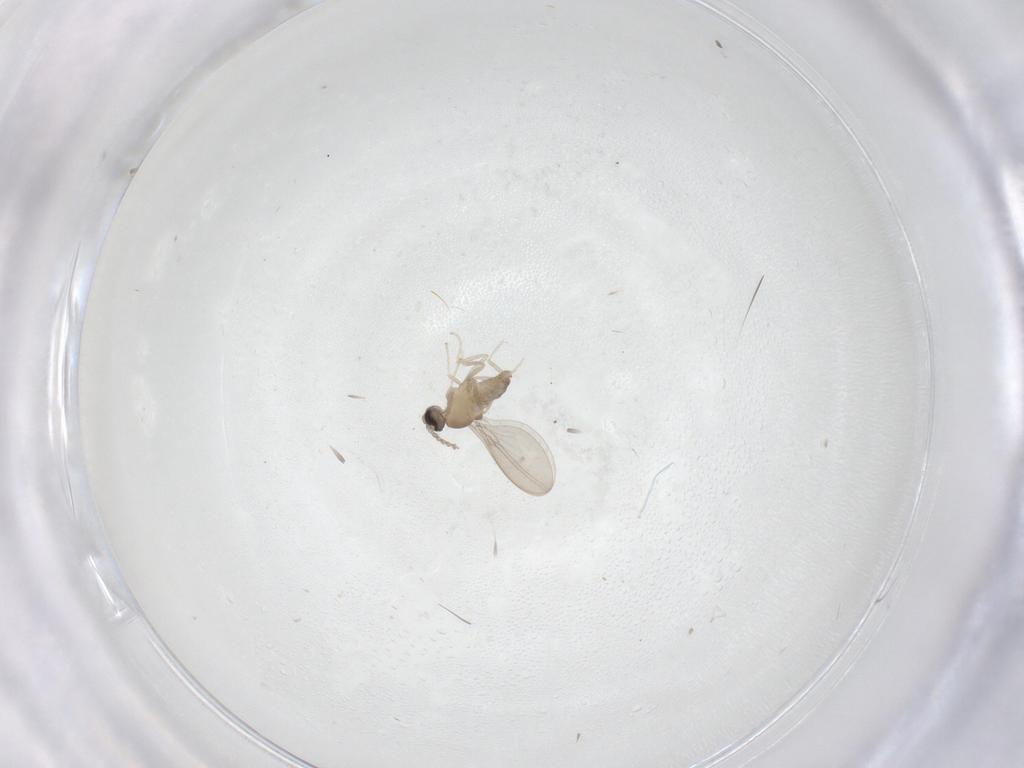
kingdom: Animalia
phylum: Arthropoda
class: Insecta
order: Diptera
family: Cecidomyiidae
